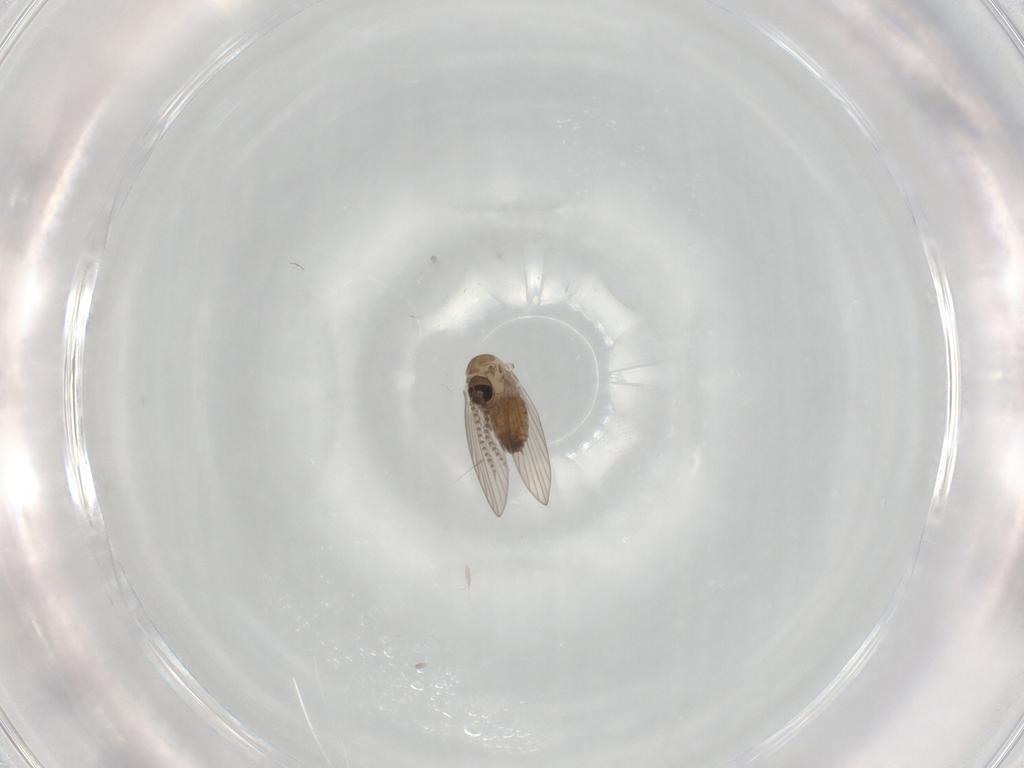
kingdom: Animalia
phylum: Arthropoda
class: Insecta
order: Diptera
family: Psychodidae
